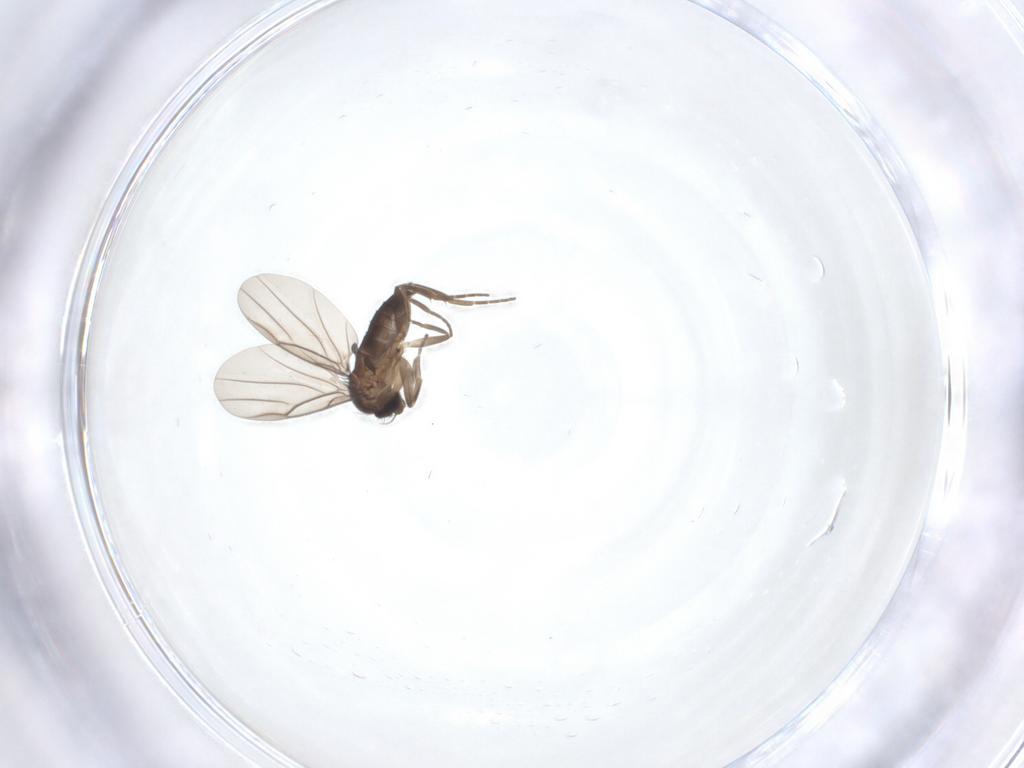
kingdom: Animalia
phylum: Arthropoda
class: Insecta
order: Diptera
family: Phoridae
